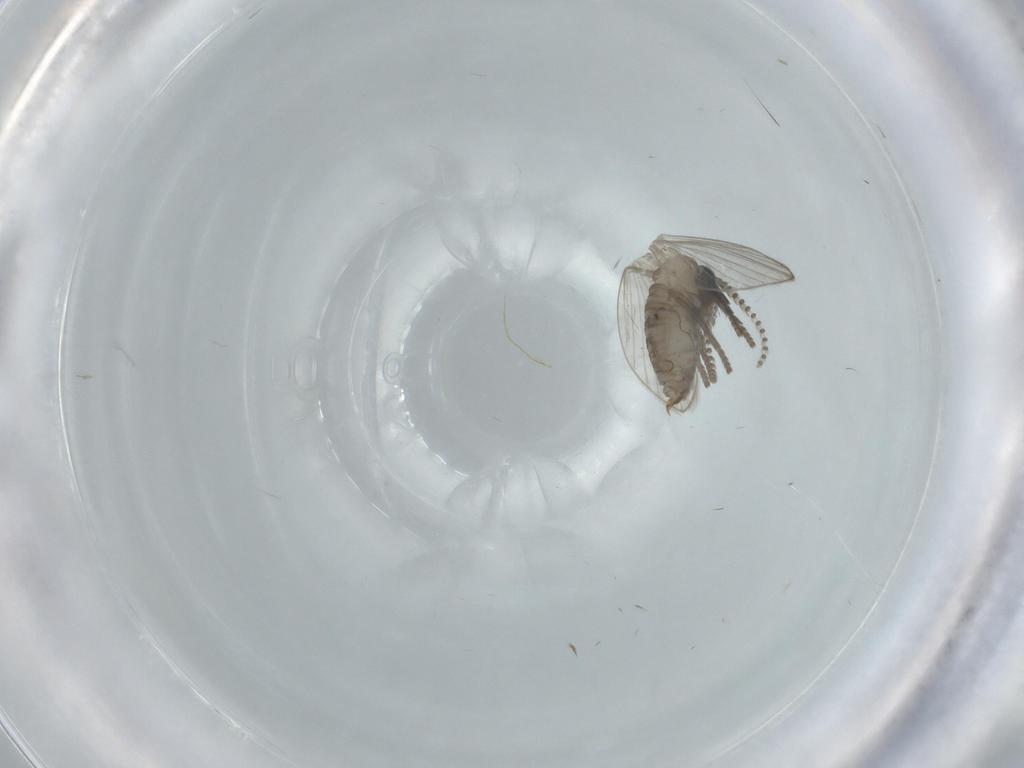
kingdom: Animalia
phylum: Arthropoda
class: Insecta
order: Diptera
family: Psychodidae
